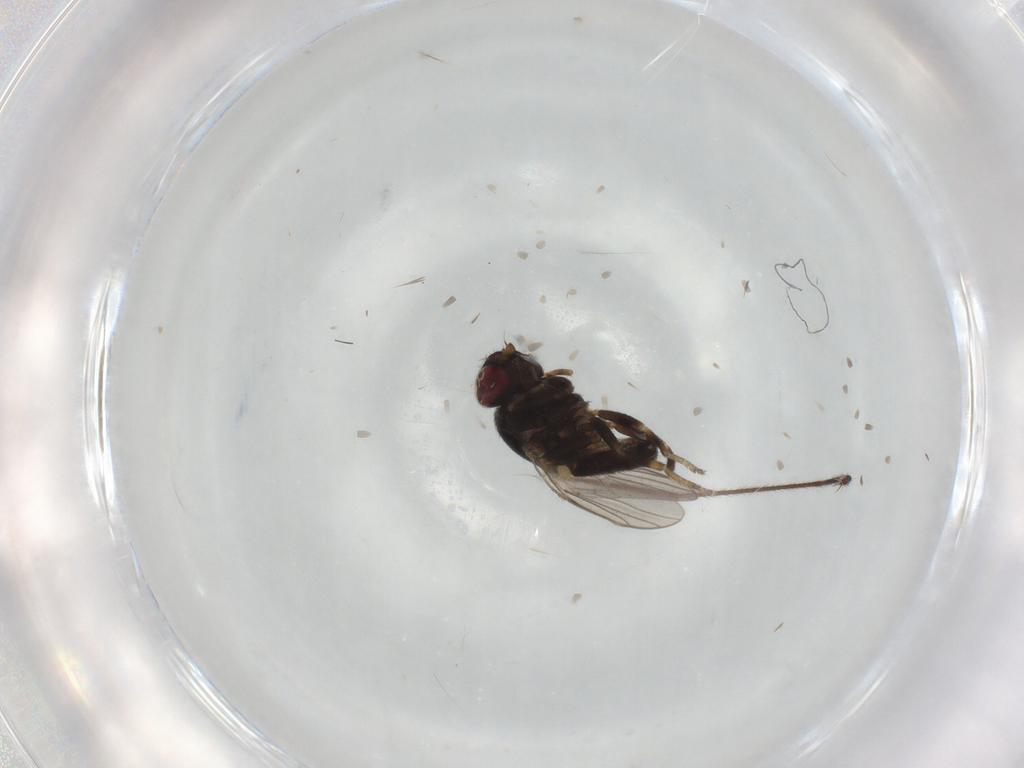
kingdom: Animalia
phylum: Arthropoda
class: Insecta
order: Diptera
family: Chloropidae
